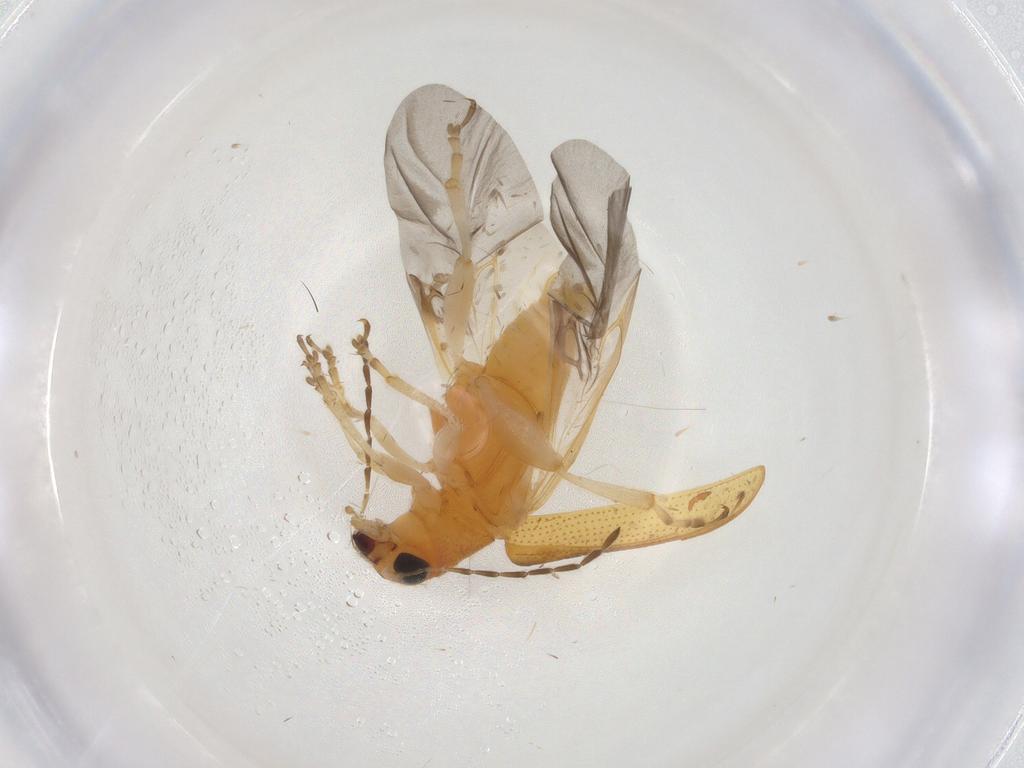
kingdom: Animalia
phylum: Arthropoda
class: Insecta
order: Coleoptera
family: Chrysomelidae
